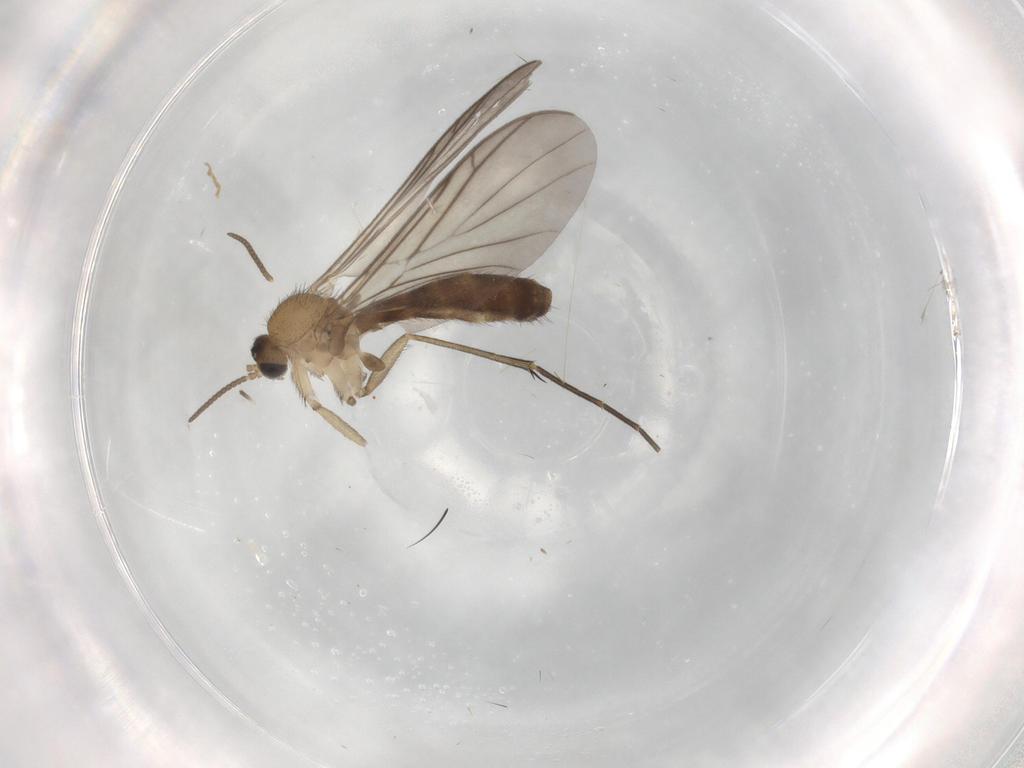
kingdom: Animalia
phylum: Arthropoda
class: Insecta
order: Diptera
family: Keroplatidae
